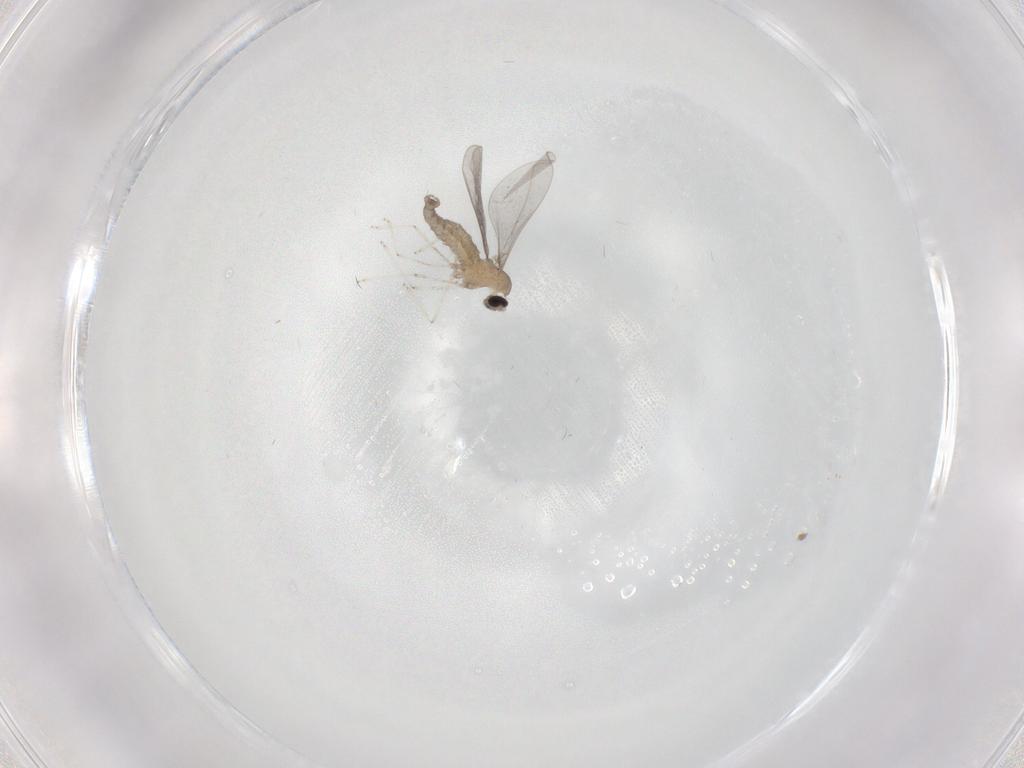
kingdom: Animalia
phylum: Arthropoda
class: Insecta
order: Diptera
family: Cecidomyiidae
